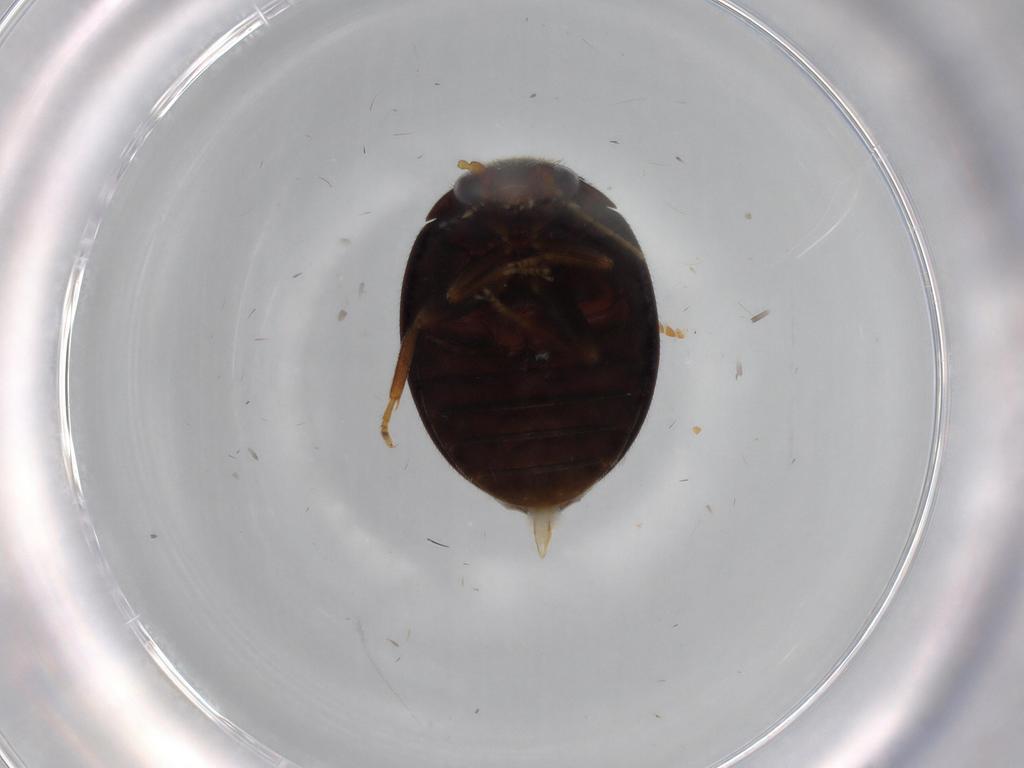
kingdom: Animalia
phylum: Arthropoda
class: Insecta
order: Coleoptera
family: Scirtidae
